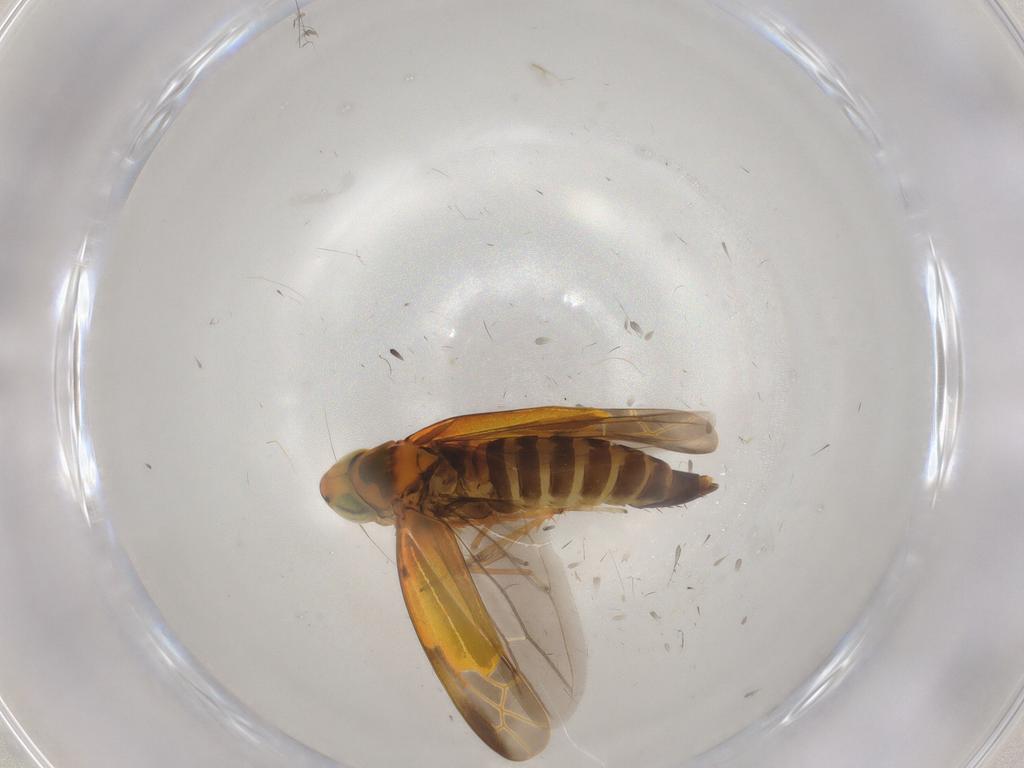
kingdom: Animalia
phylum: Arthropoda
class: Insecta
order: Hemiptera
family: Cicadellidae
